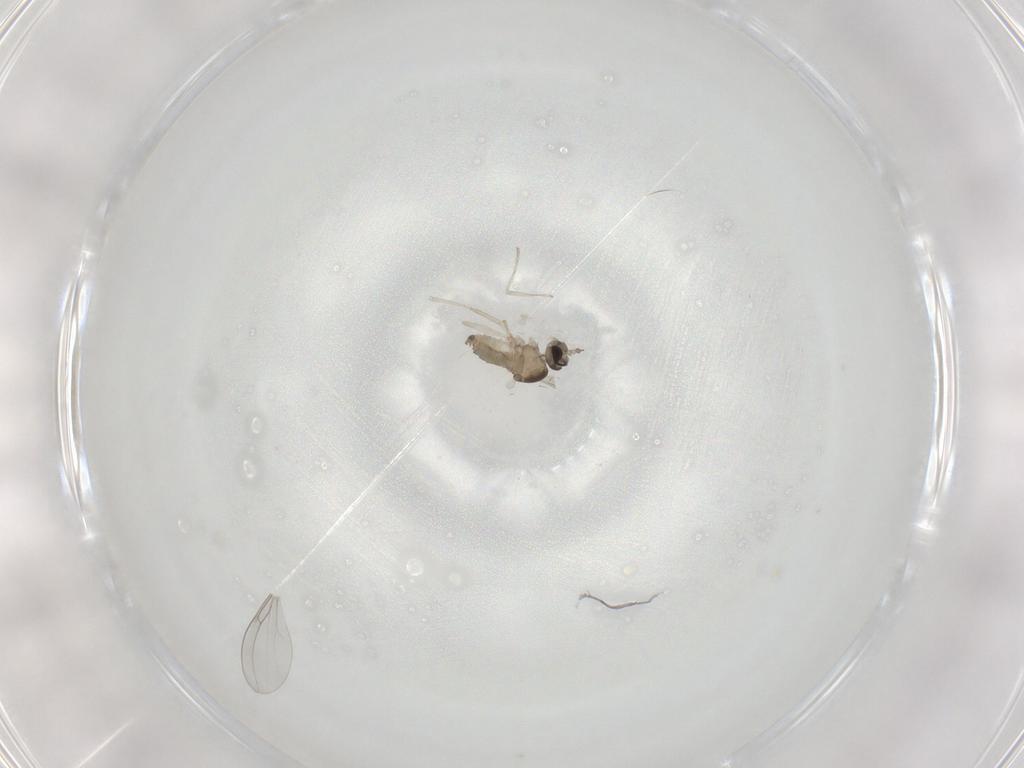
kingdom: Animalia
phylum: Arthropoda
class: Insecta
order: Diptera
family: Cecidomyiidae
